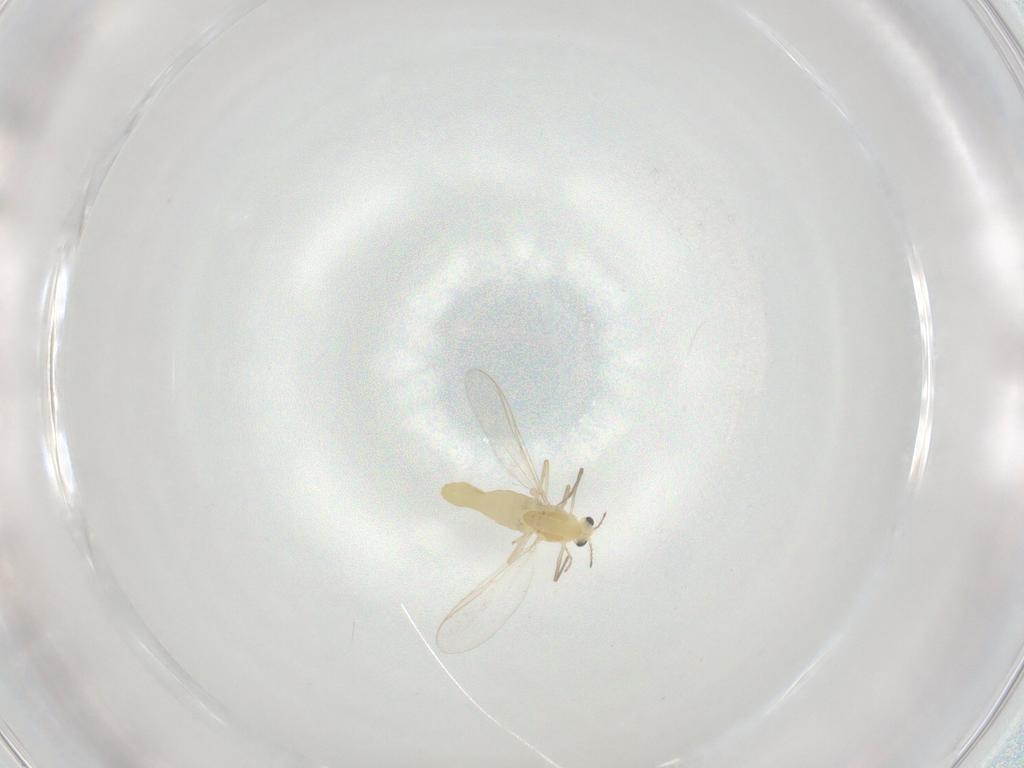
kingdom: Animalia
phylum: Arthropoda
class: Insecta
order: Diptera
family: Chironomidae
